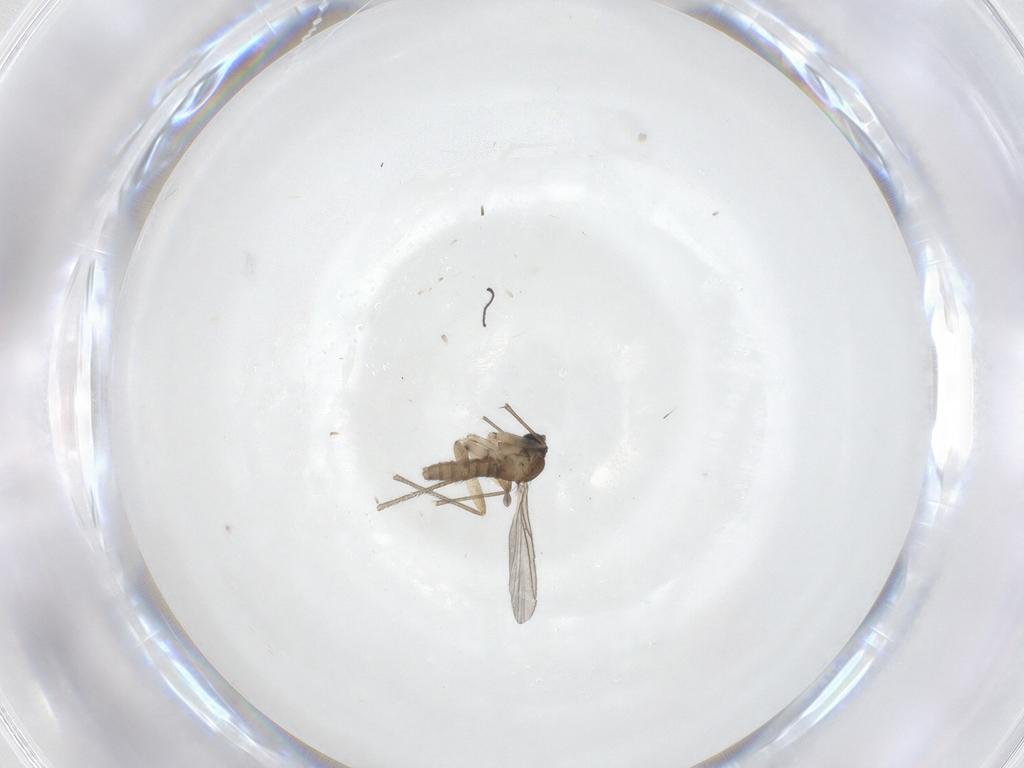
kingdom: Animalia
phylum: Arthropoda
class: Insecta
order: Diptera
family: Sciaridae
